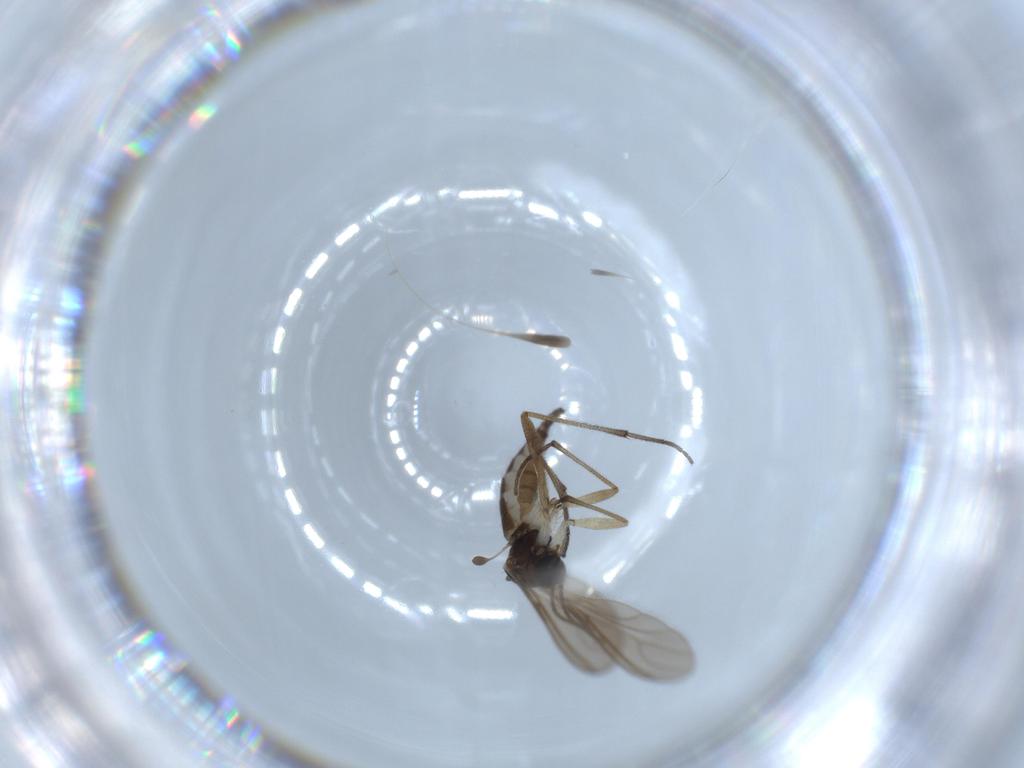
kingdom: Animalia
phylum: Arthropoda
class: Insecta
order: Diptera
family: Sciaridae
